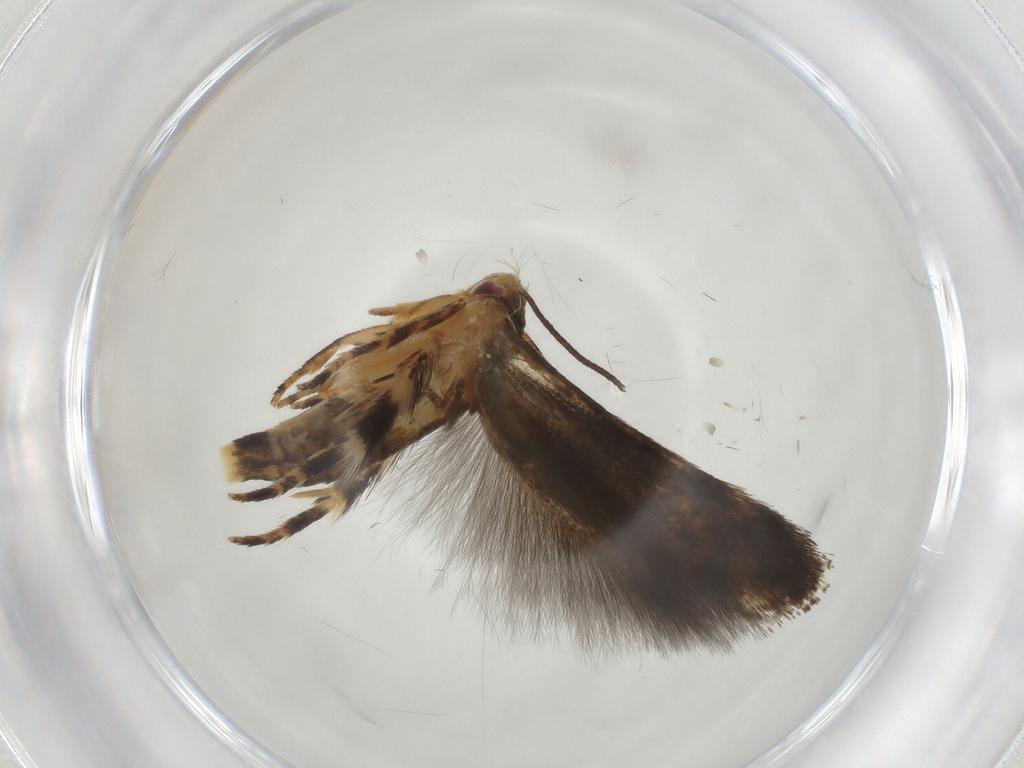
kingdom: Animalia
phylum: Arthropoda
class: Insecta
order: Lepidoptera
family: Momphidae
